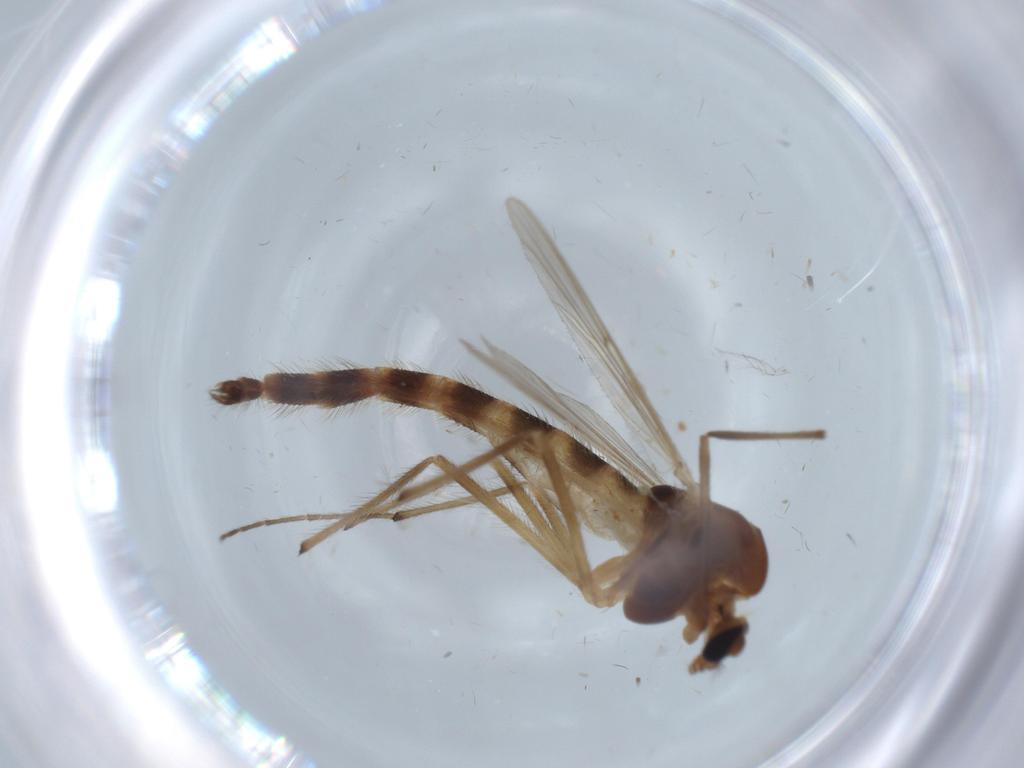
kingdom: Animalia
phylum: Arthropoda
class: Insecta
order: Diptera
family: Chironomidae
